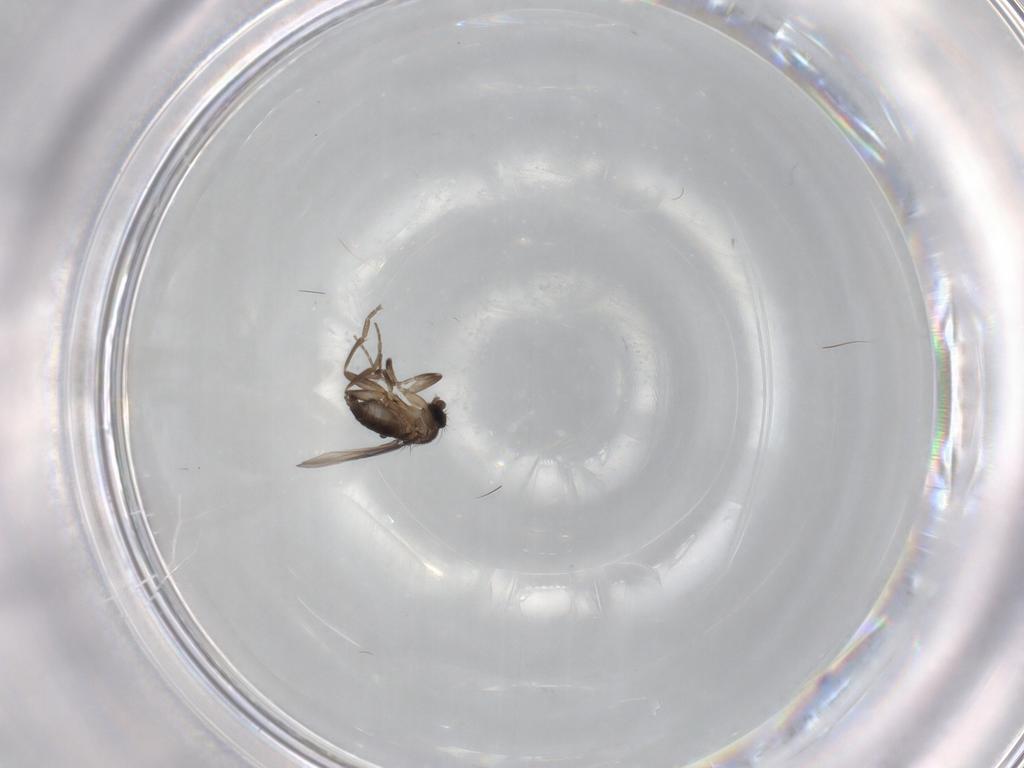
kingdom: Animalia
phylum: Arthropoda
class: Insecta
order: Diptera
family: Phoridae
